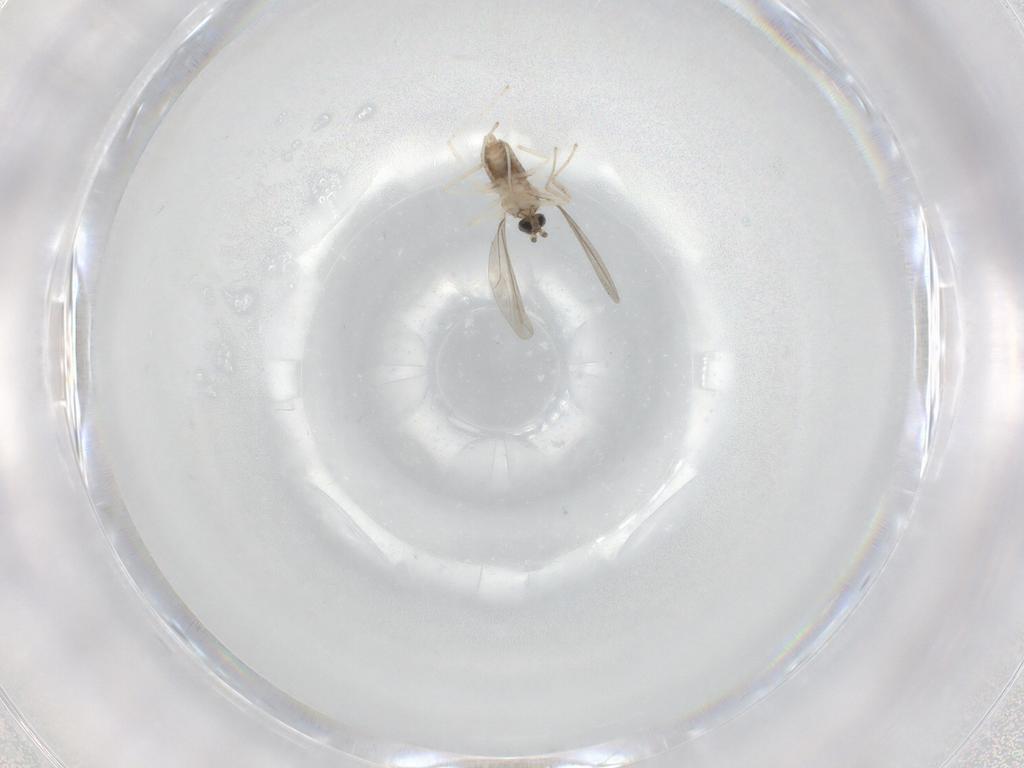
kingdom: Animalia
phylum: Arthropoda
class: Insecta
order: Diptera
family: Cecidomyiidae
